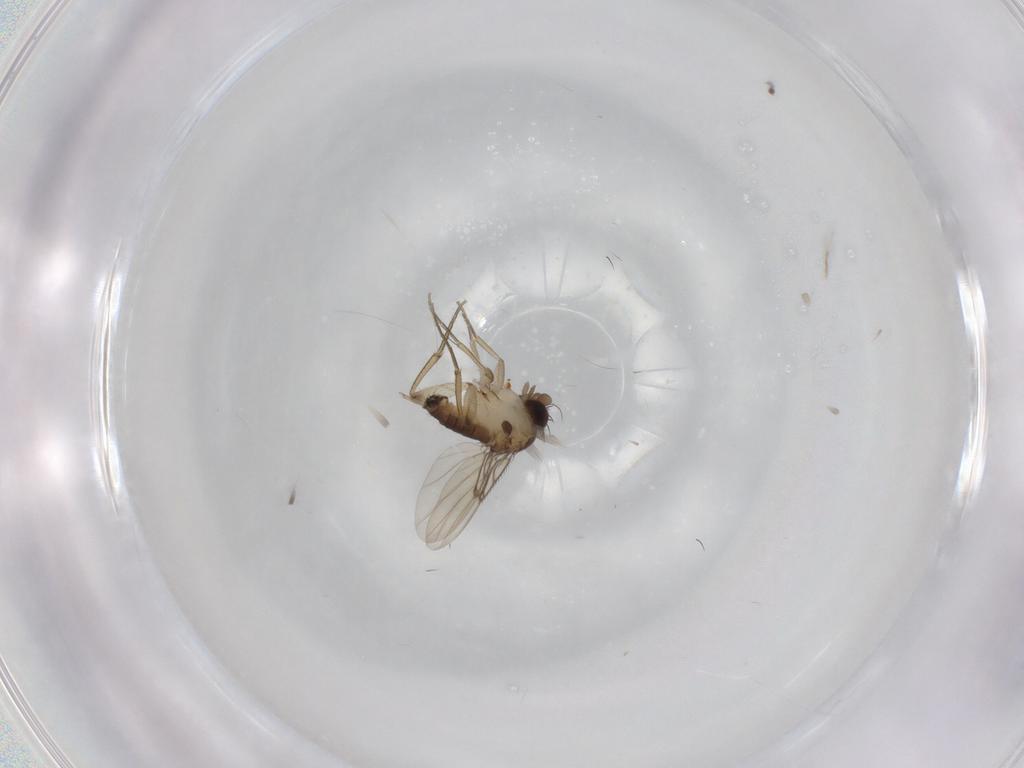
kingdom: Animalia
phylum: Arthropoda
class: Insecta
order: Diptera
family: Phoridae
